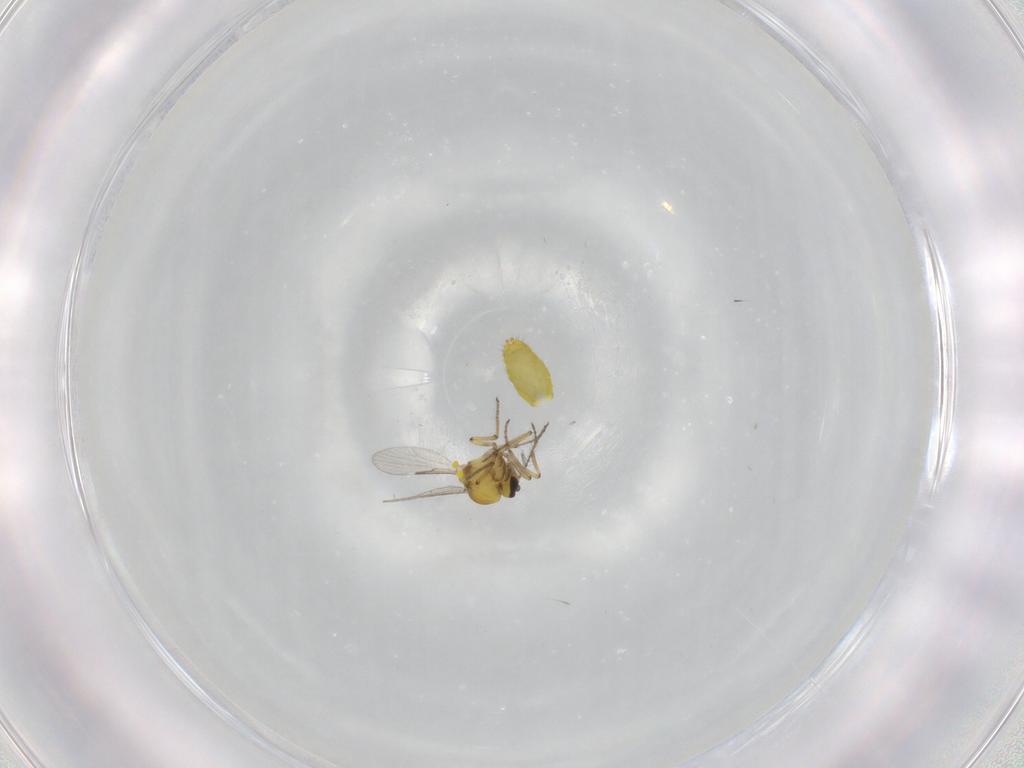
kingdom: Animalia
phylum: Arthropoda
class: Insecta
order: Diptera
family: Ceratopogonidae
